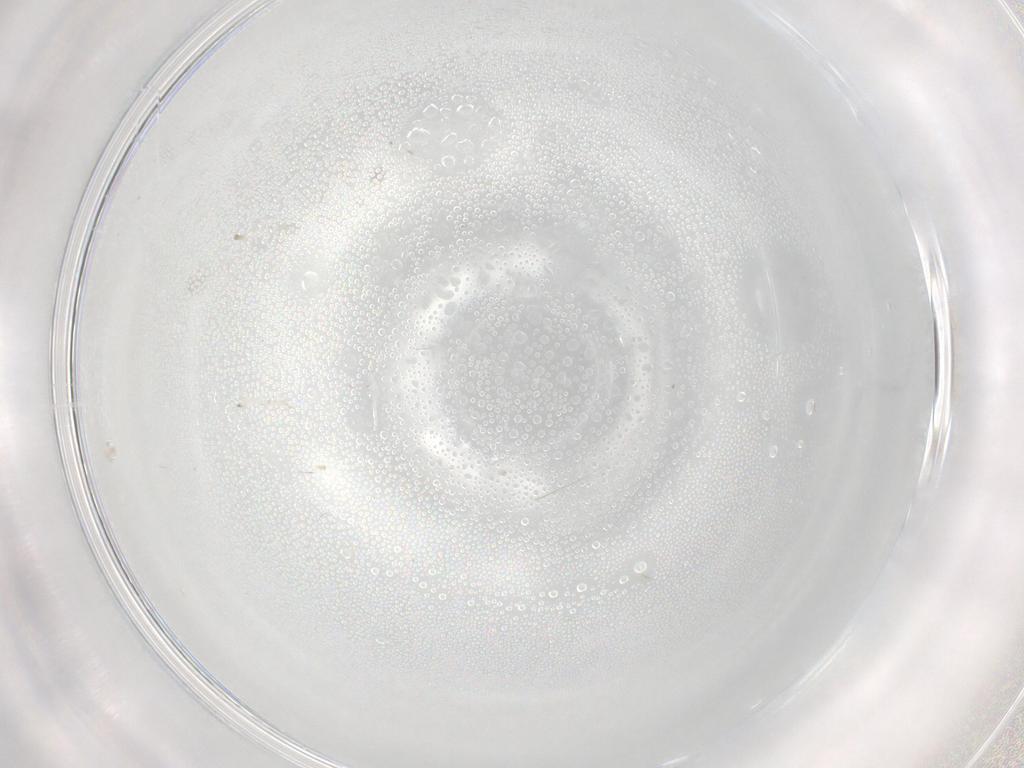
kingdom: Animalia
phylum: Arthropoda
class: Insecta
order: Diptera
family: Cecidomyiidae
